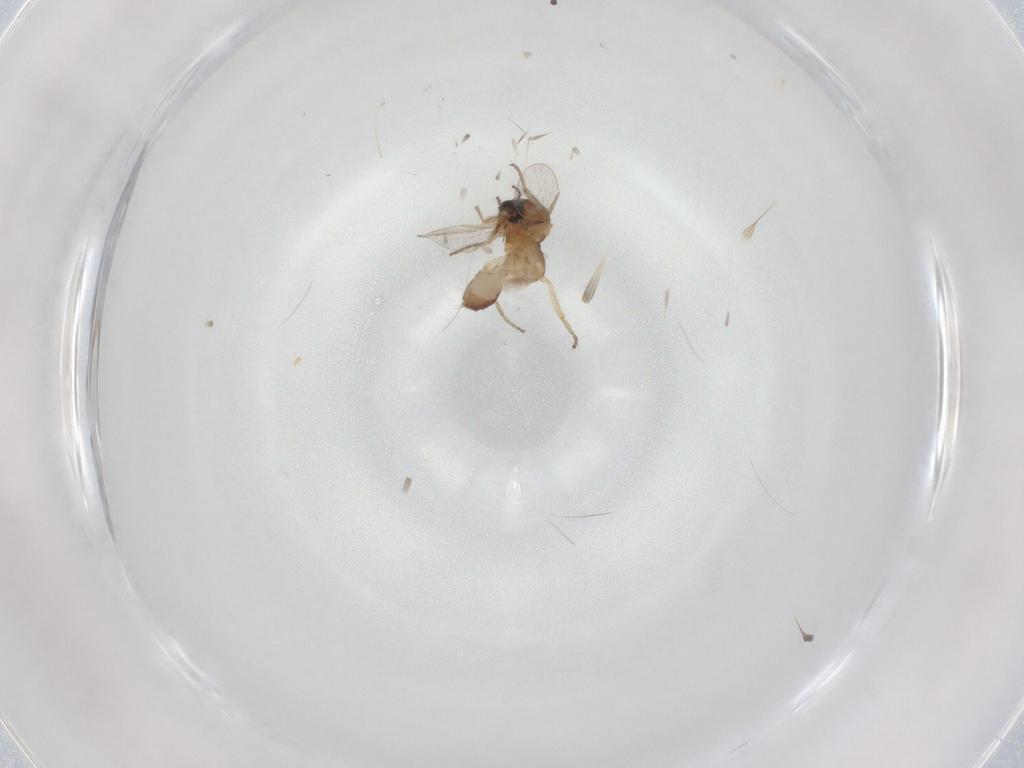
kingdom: Animalia
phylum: Arthropoda
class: Insecta
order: Diptera
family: Ceratopogonidae
